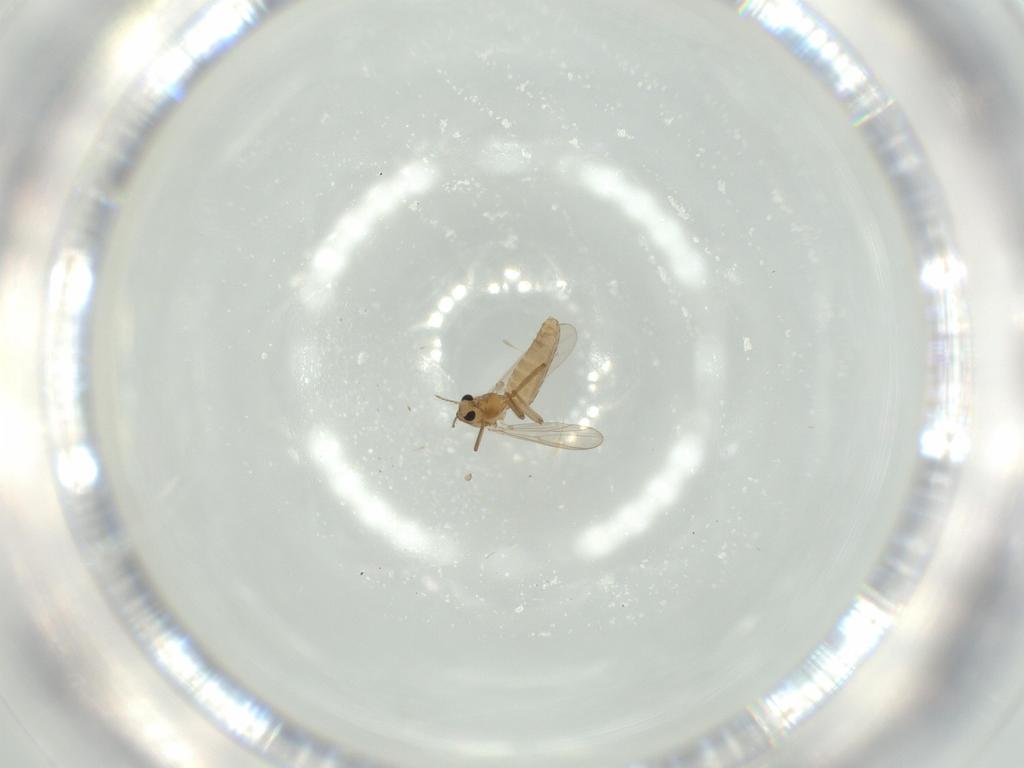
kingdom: Animalia
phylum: Arthropoda
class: Insecta
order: Diptera
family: Chironomidae
